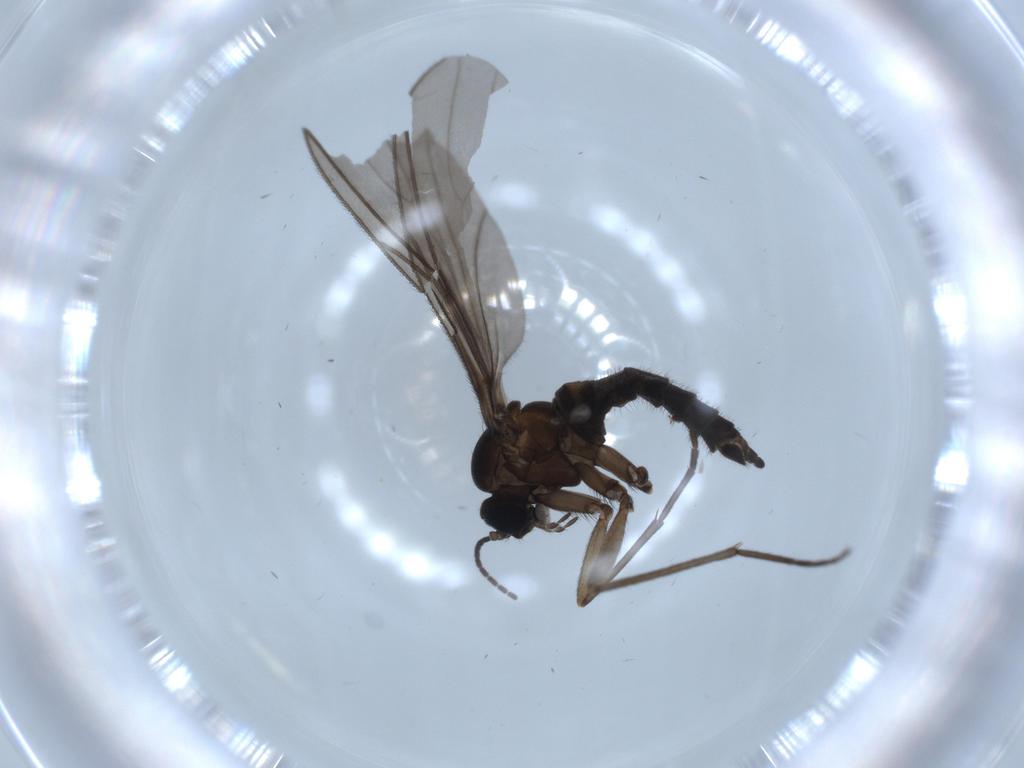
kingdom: Animalia
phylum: Arthropoda
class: Insecta
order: Diptera
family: Sciaridae
